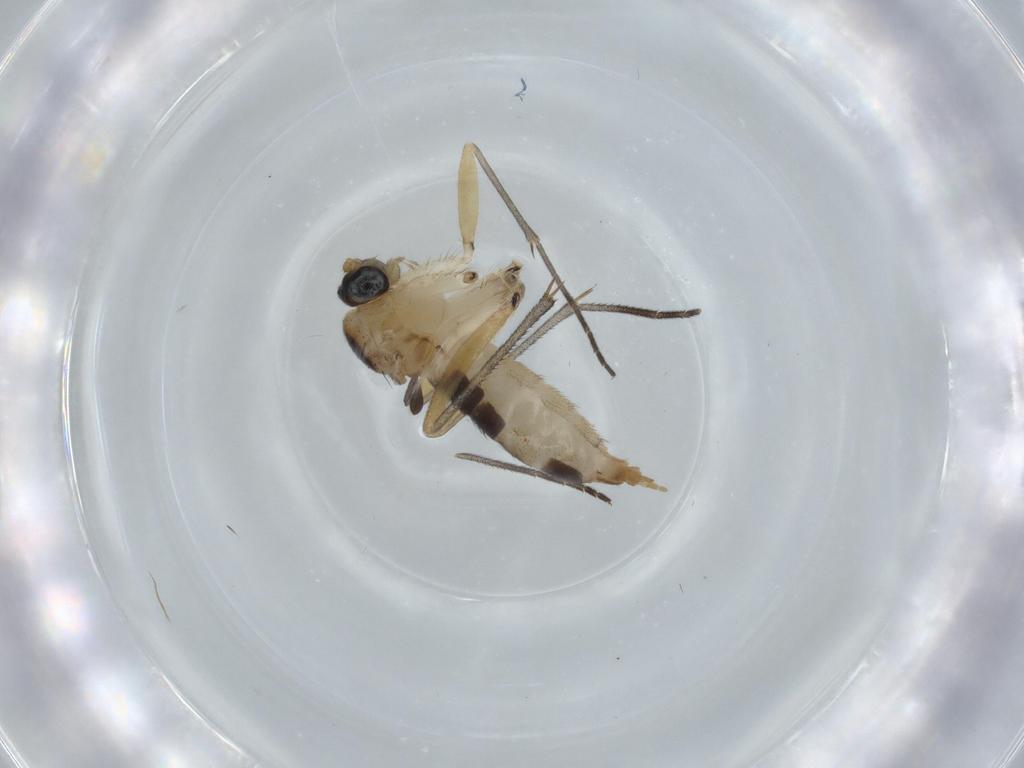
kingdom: Animalia
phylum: Arthropoda
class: Insecta
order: Diptera
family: Sciaridae
